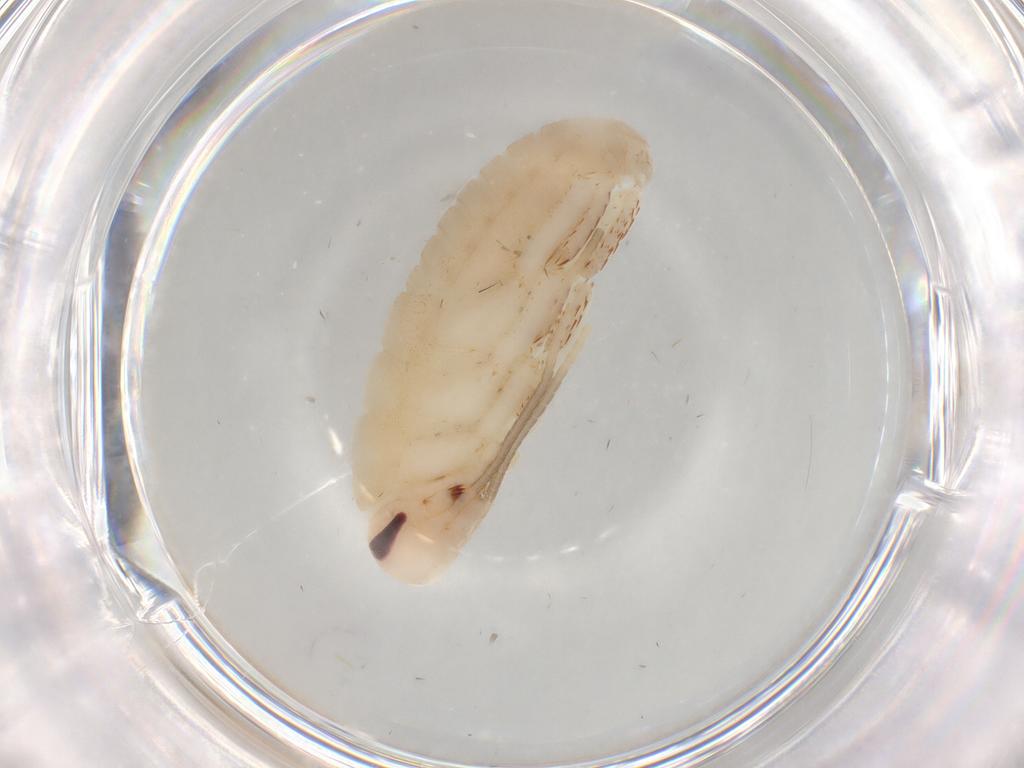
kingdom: Animalia
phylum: Arthropoda
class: Insecta
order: Blattodea
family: Blaberidae
